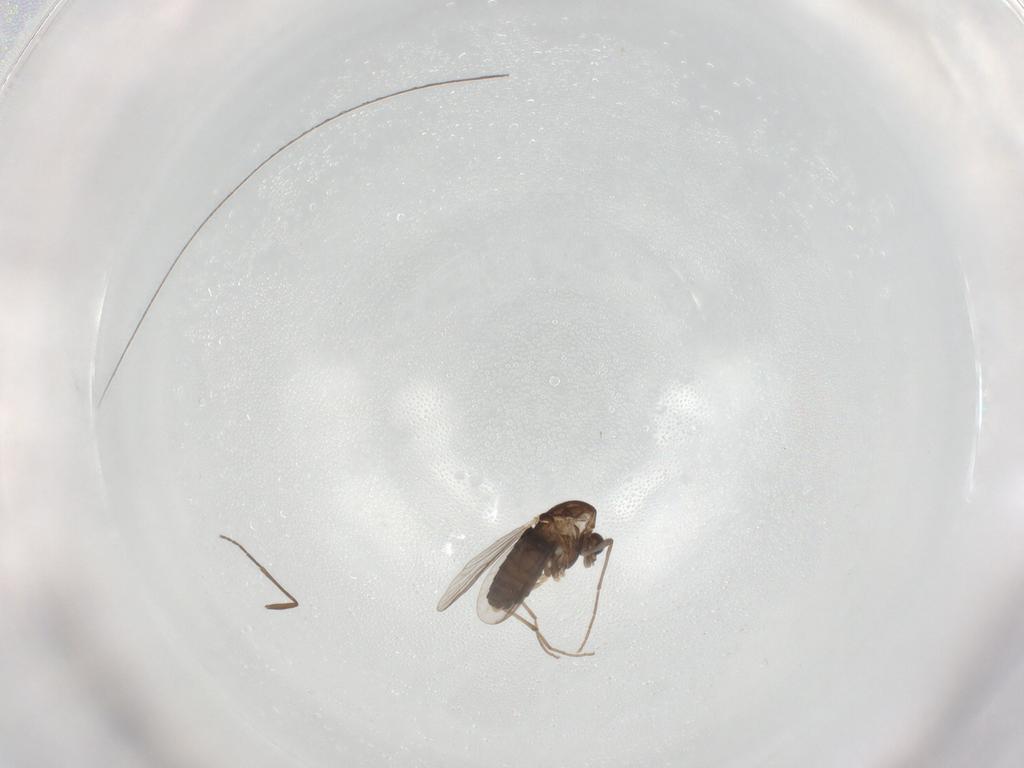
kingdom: Animalia
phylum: Arthropoda
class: Insecta
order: Diptera
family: Chironomidae
